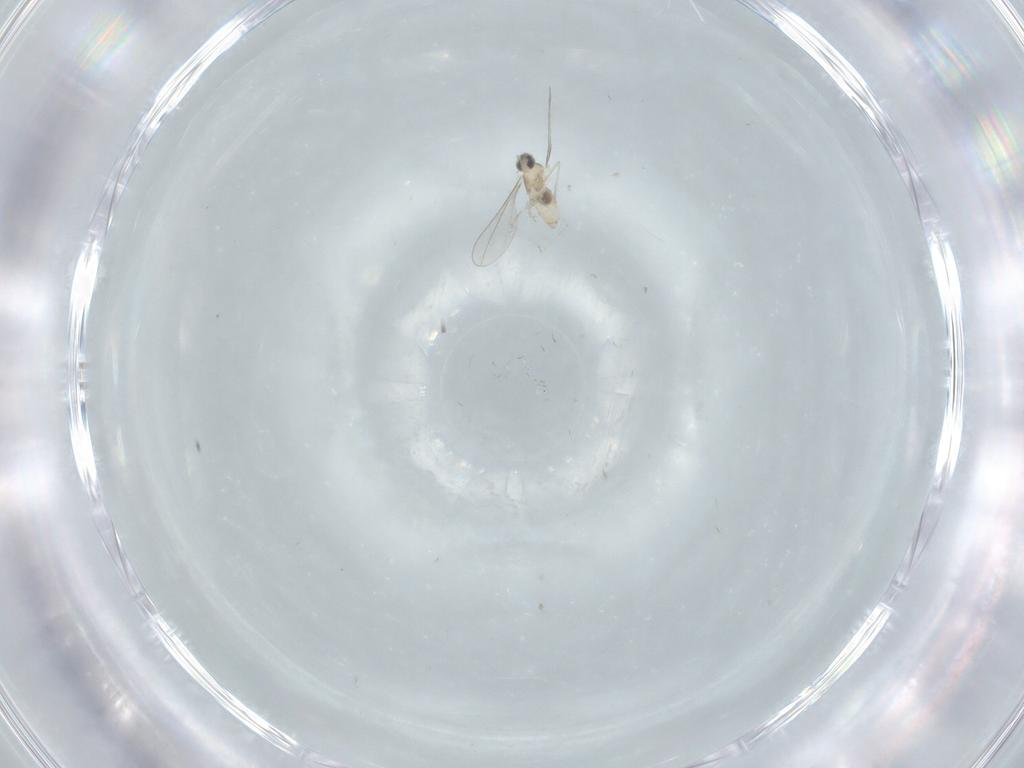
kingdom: Animalia
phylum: Arthropoda
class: Insecta
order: Diptera
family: Cecidomyiidae
